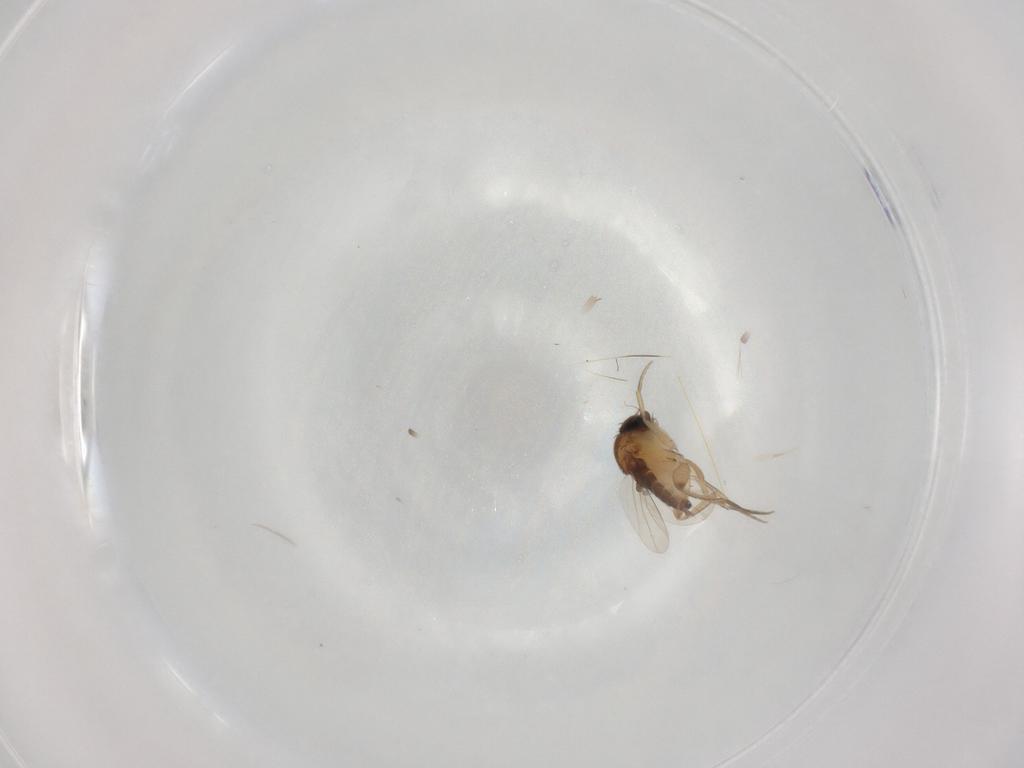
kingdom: Animalia
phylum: Arthropoda
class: Insecta
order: Diptera
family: Phoridae
